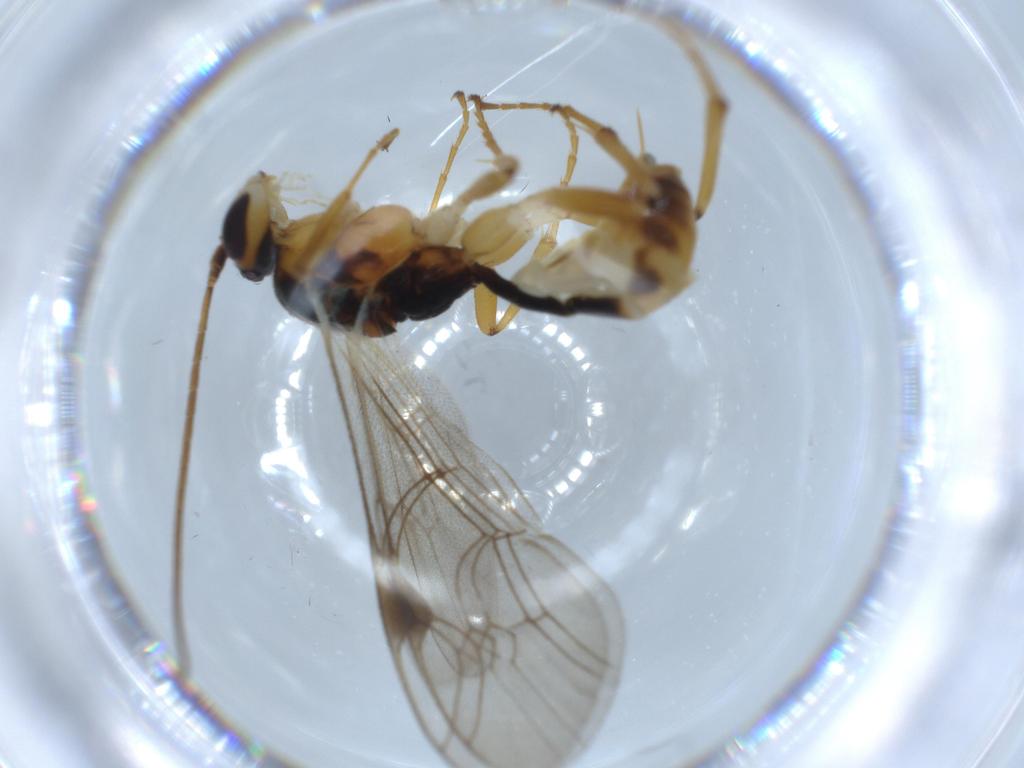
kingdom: Animalia
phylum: Arthropoda
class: Insecta
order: Hymenoptera
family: Ichneumonidae
